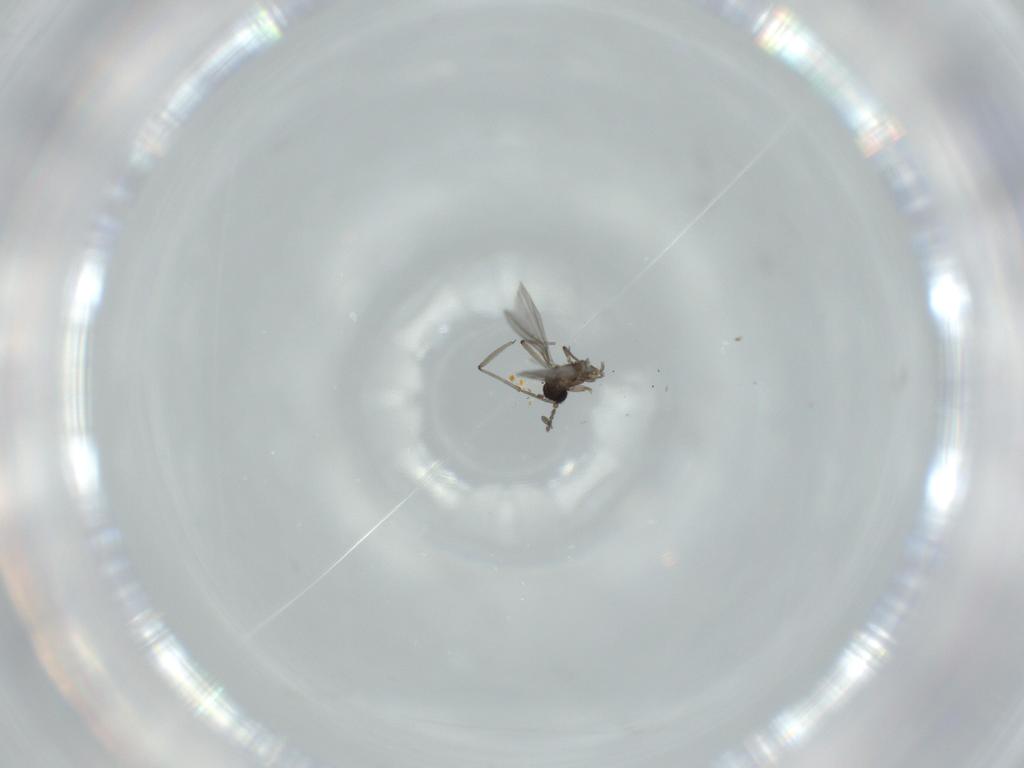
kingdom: Animalia
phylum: Arthropoda
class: Insecta
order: Diptera
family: Sciaridae
